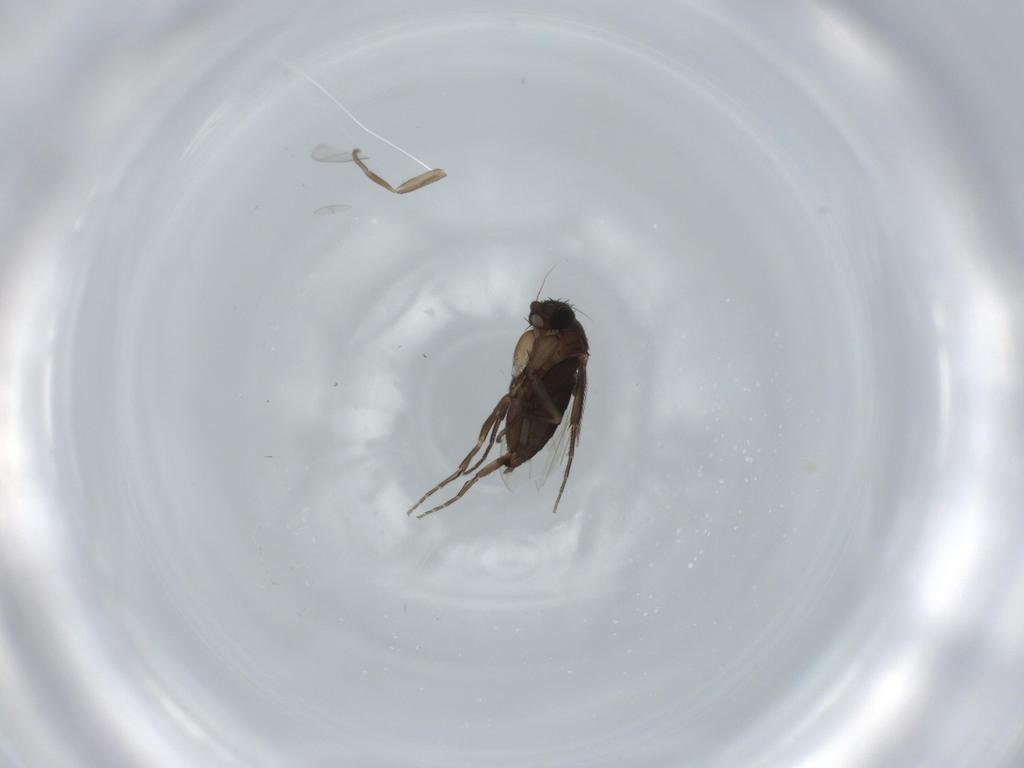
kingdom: Animalia
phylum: Arthropoda
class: Insecta
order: Diptera
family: Phoridae
